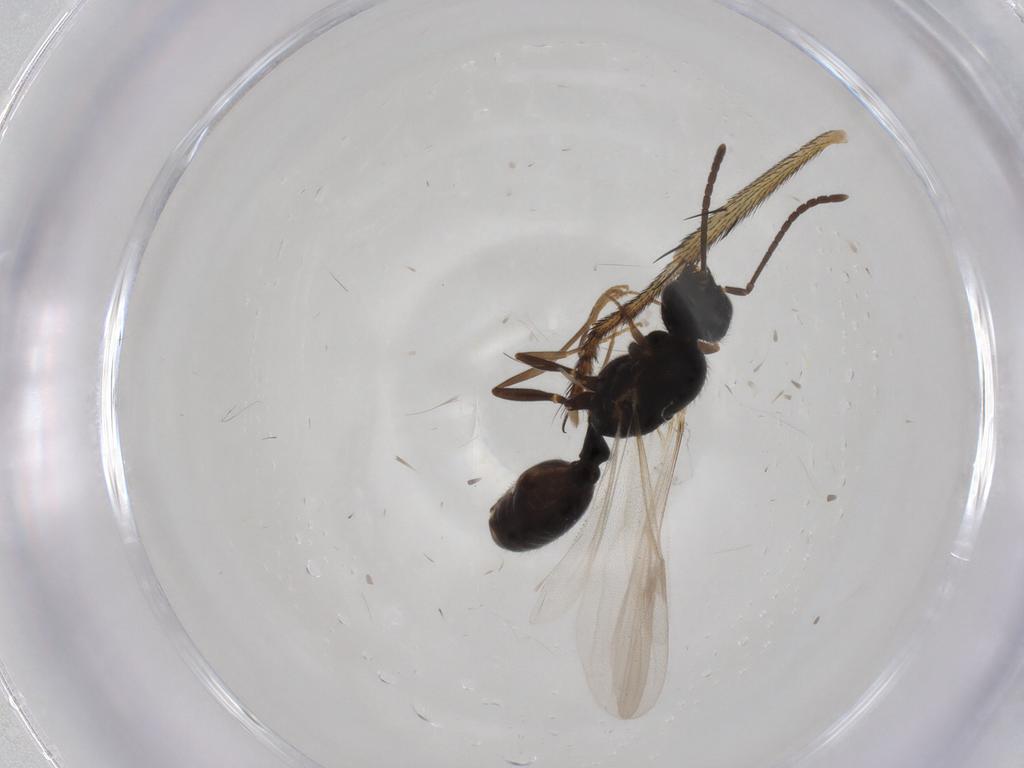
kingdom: Animalia
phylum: Arthropoda
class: Insecta
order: Hymenoptera
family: Formicidae
